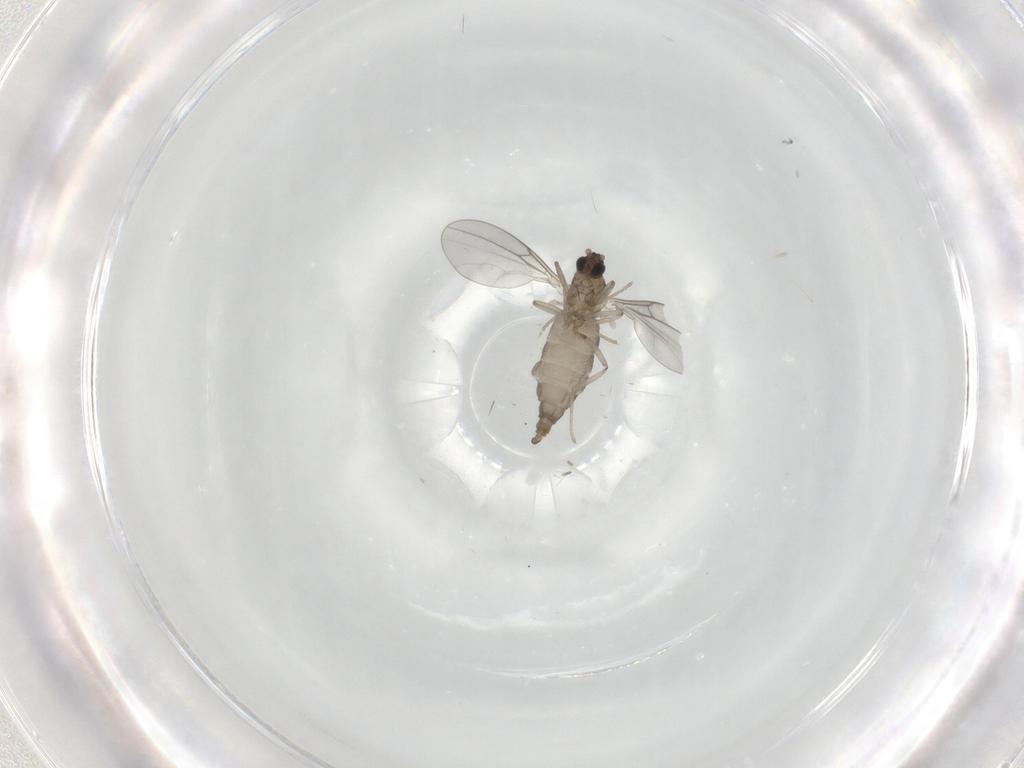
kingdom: Animalia
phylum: Arthropoda
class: Insecta
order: Diptera
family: Cecidomyiidae
